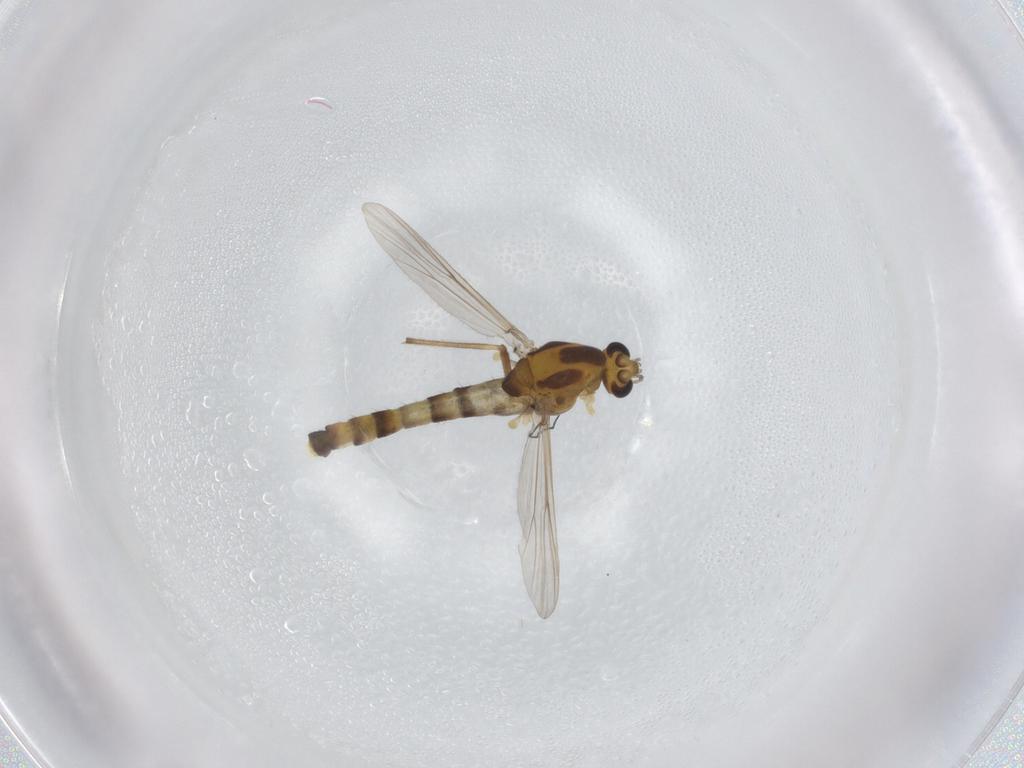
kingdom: Animalia
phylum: Arthropoda
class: Insecta
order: Diptera
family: Chironomidae
